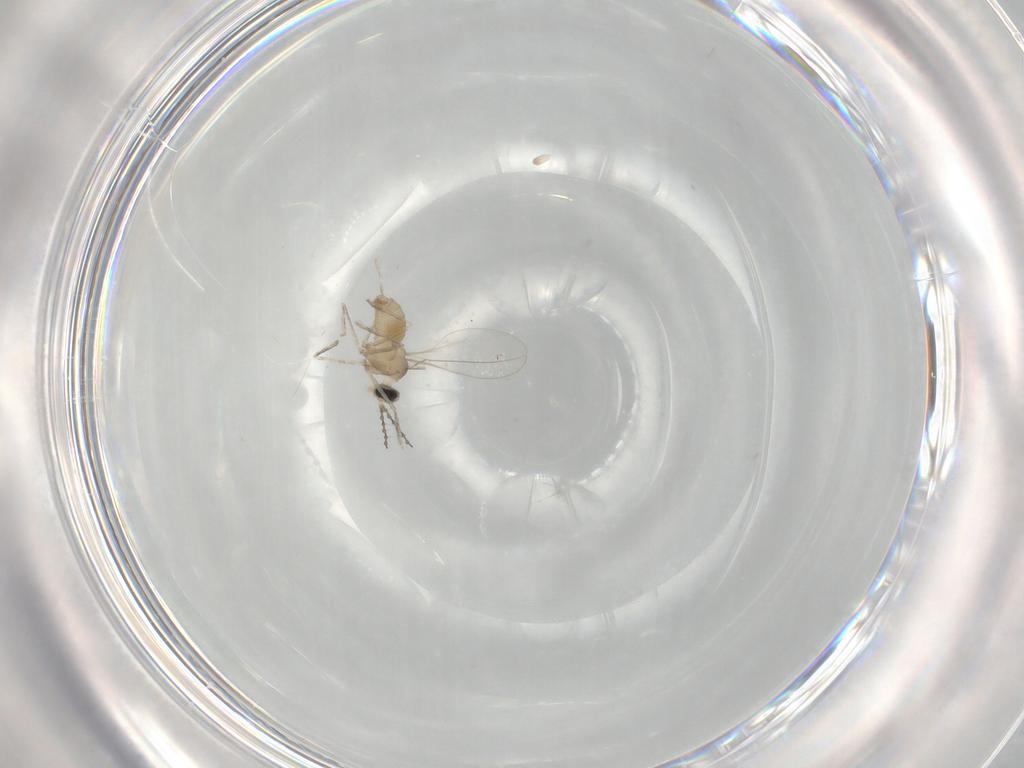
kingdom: Animalia
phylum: Arthropoda
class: Insecta
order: Diptera
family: Cecidomyiidae
